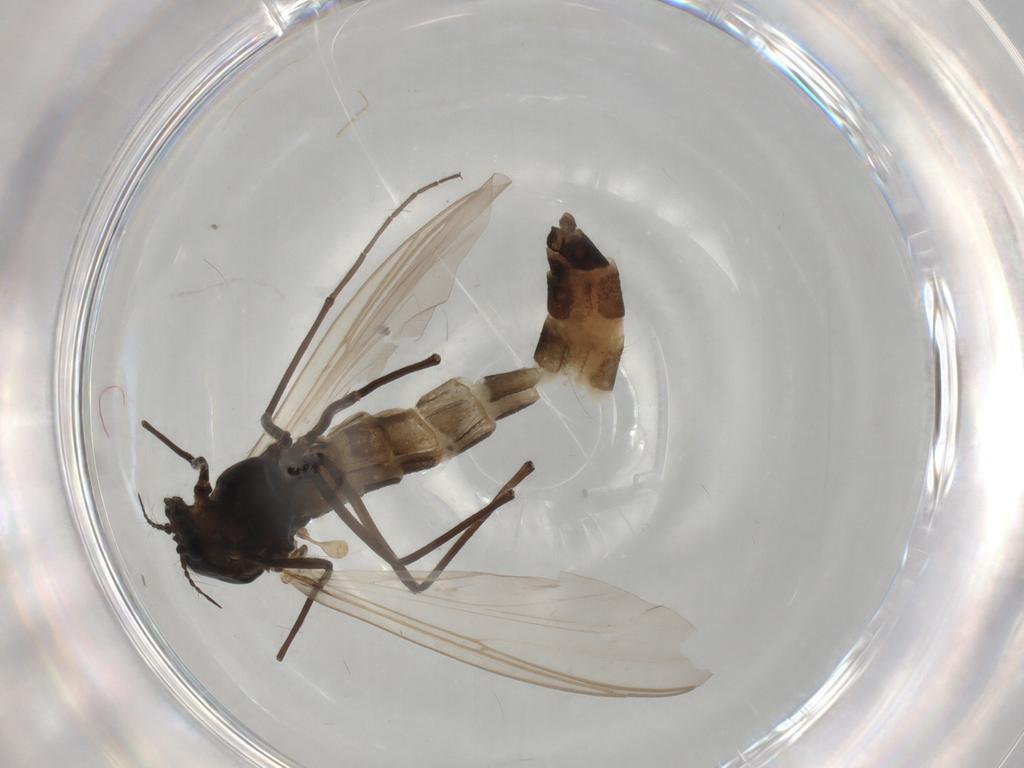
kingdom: Animalia
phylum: Arthropoda
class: Insecta
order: Diptera
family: Chironomidae
